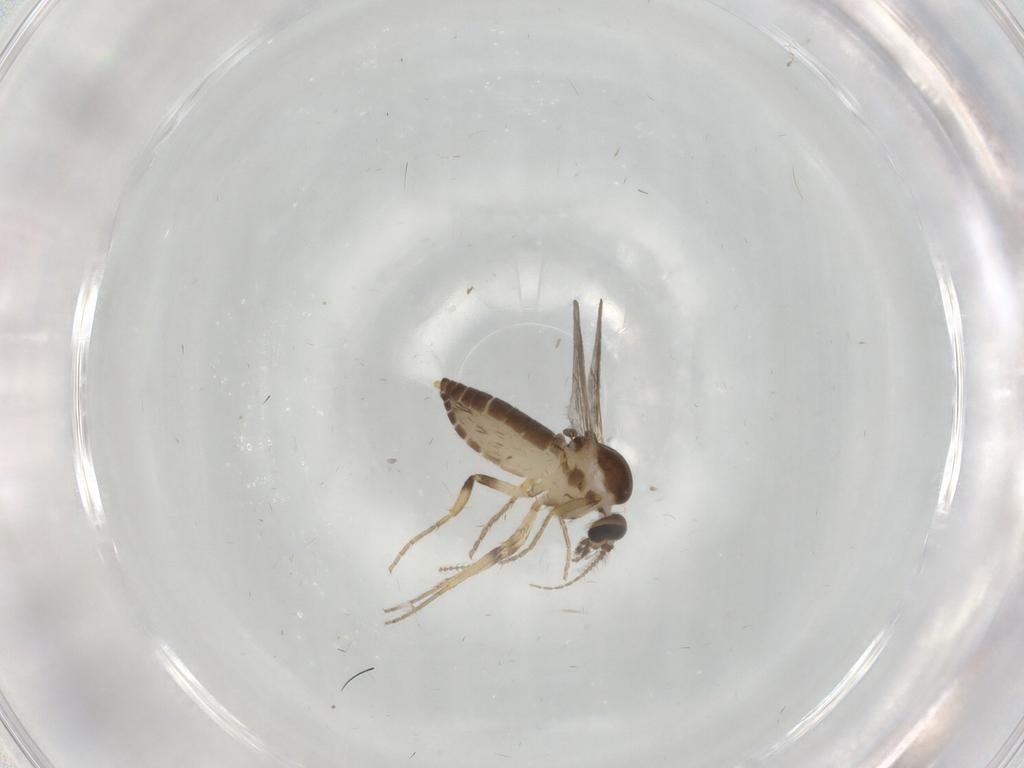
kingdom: Animalia
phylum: Arthropoda
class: Insecta
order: Diptera
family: Ceratopogonidae
